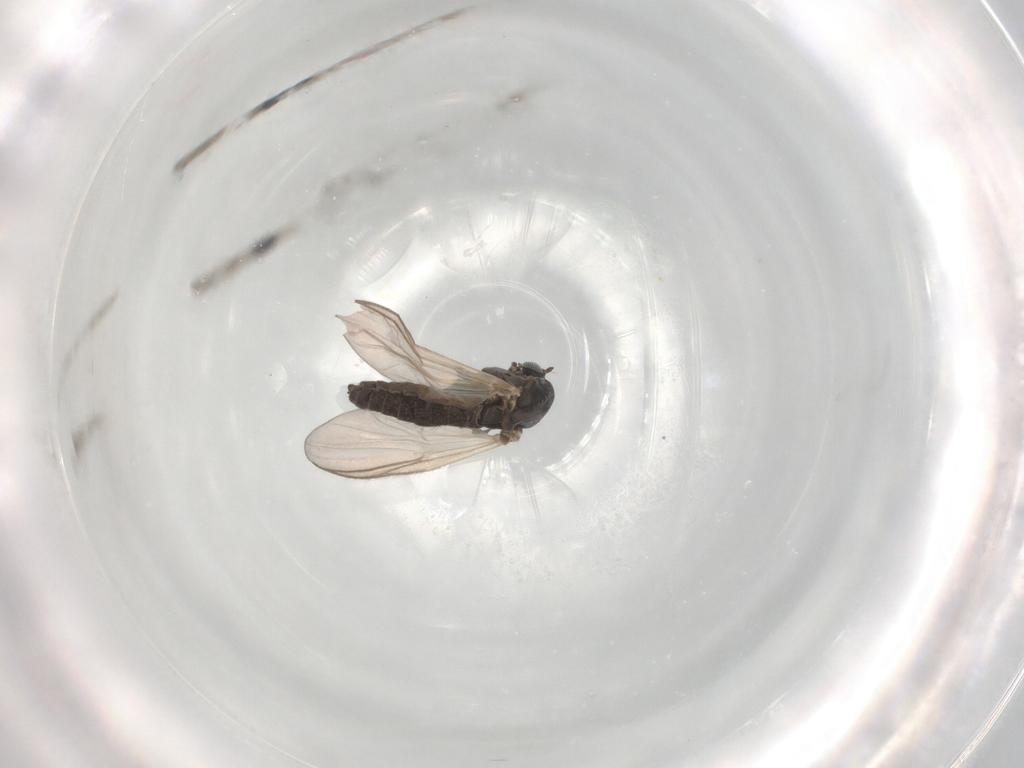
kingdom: Animalia
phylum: Arthropoda
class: Insecta
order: Diptera
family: Chironomidae
